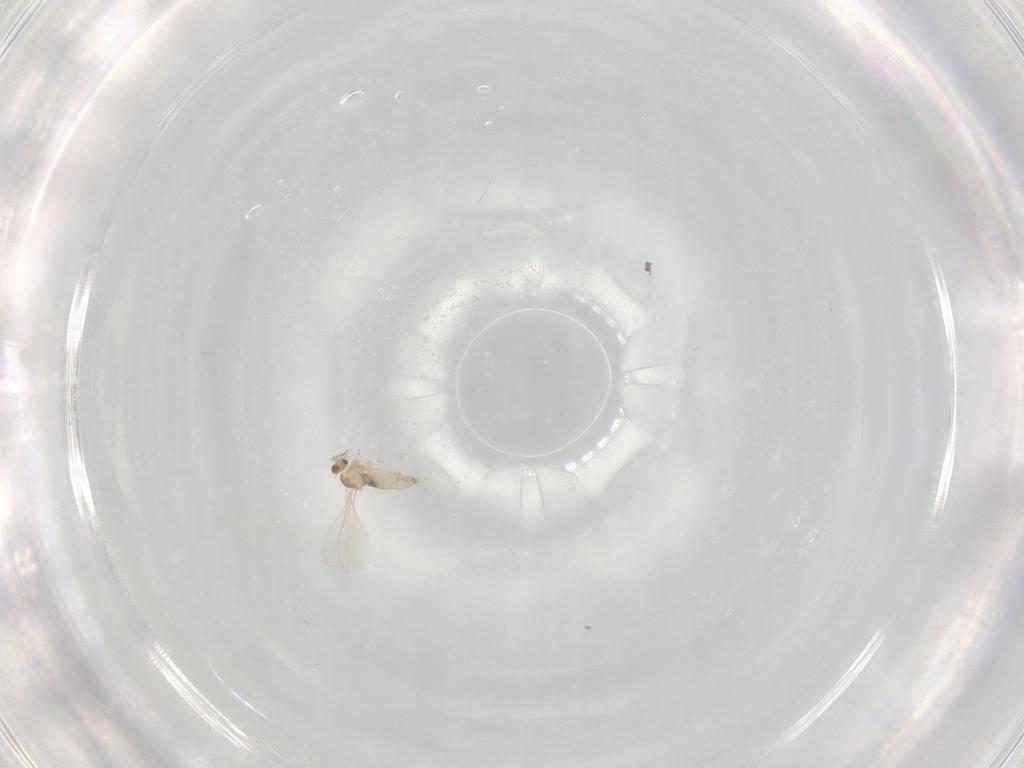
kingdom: Animalia
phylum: Arthropoda
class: Insecta
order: Diptera
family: Cecidomyiidae
